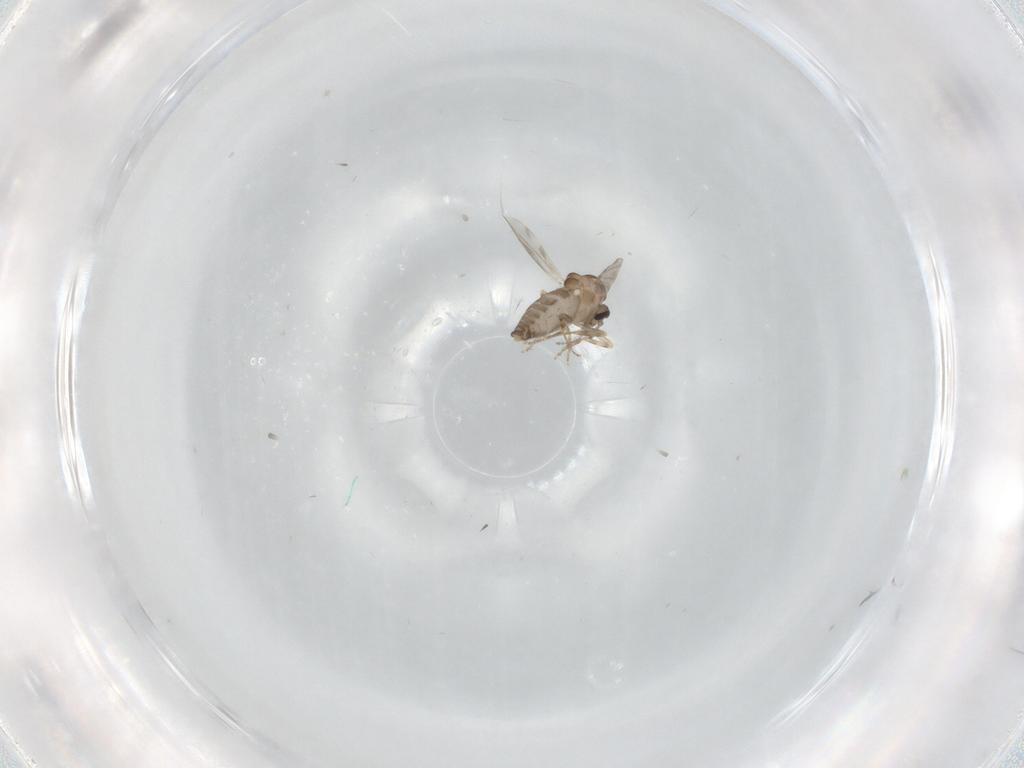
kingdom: Animalia
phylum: Arthropoda
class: Insecta
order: Diptera
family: Ceratopogonidae
